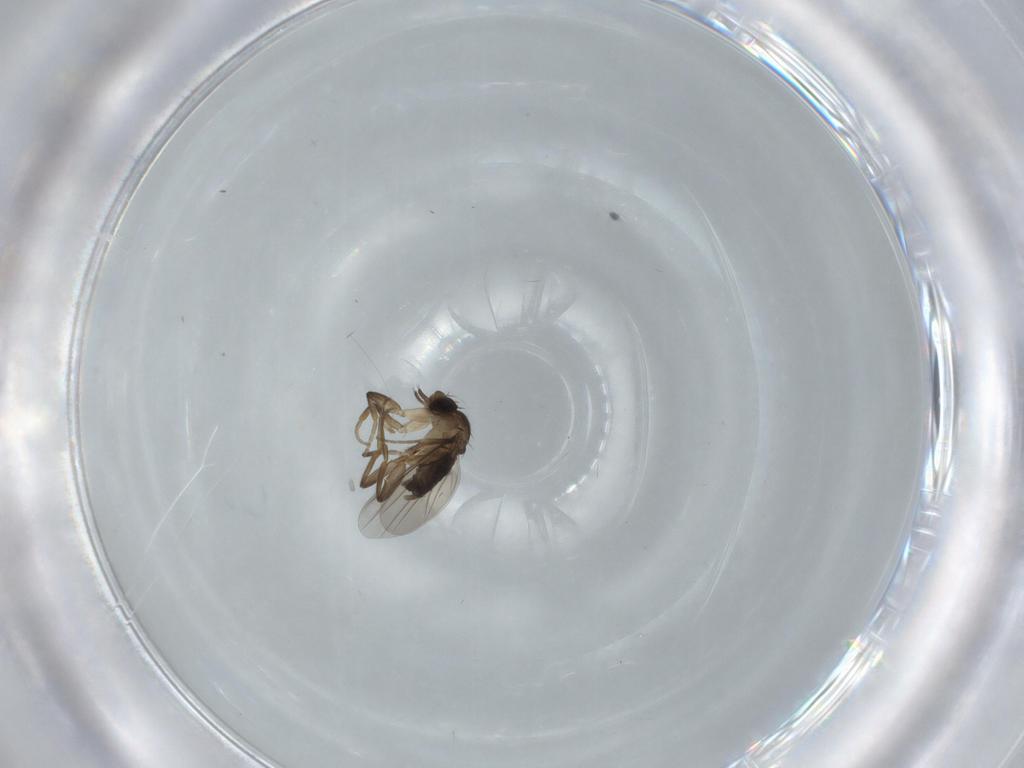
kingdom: Animalia
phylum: Arthropoda
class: Insecta
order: Diptera
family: Phoridae
